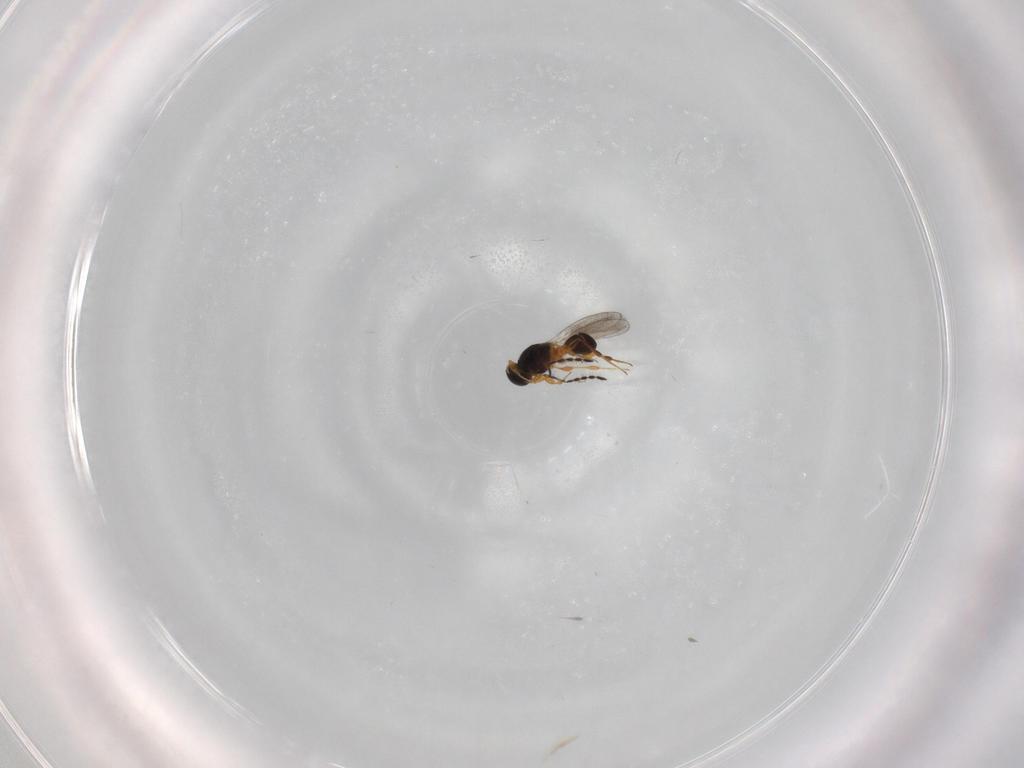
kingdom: Animalia
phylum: Arthropoda
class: Insecta
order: Hymenoptera
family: Platygastridae
